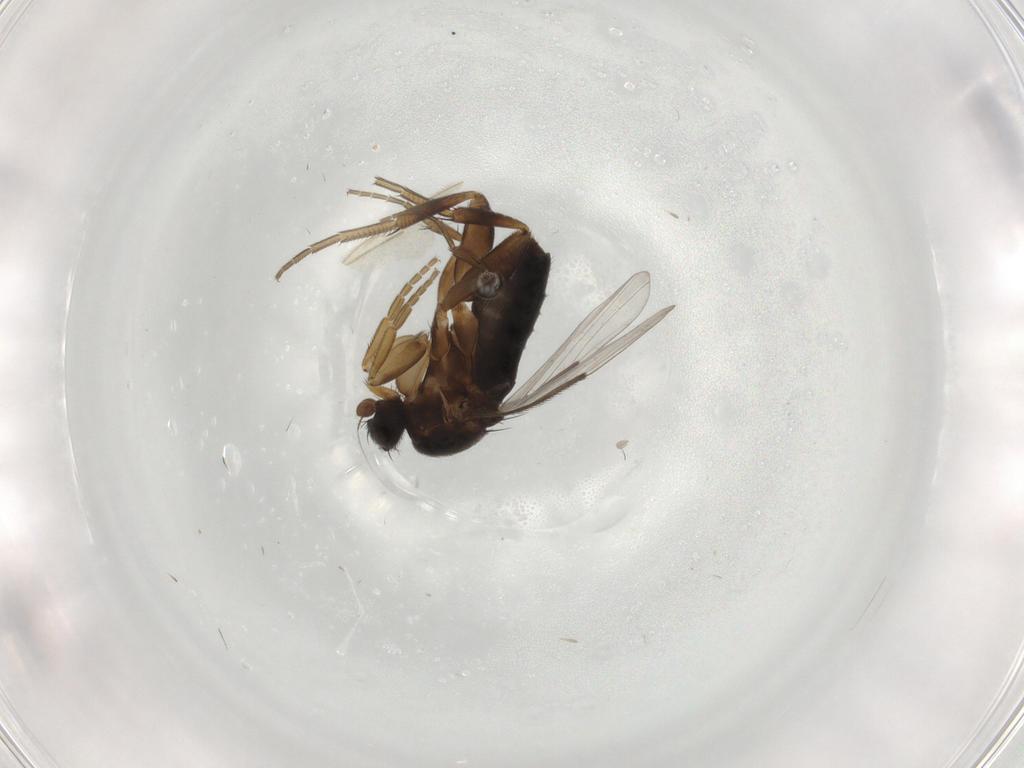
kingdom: Animalia
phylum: Arthropoda
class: Insecta
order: Diptera
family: Phoridae
